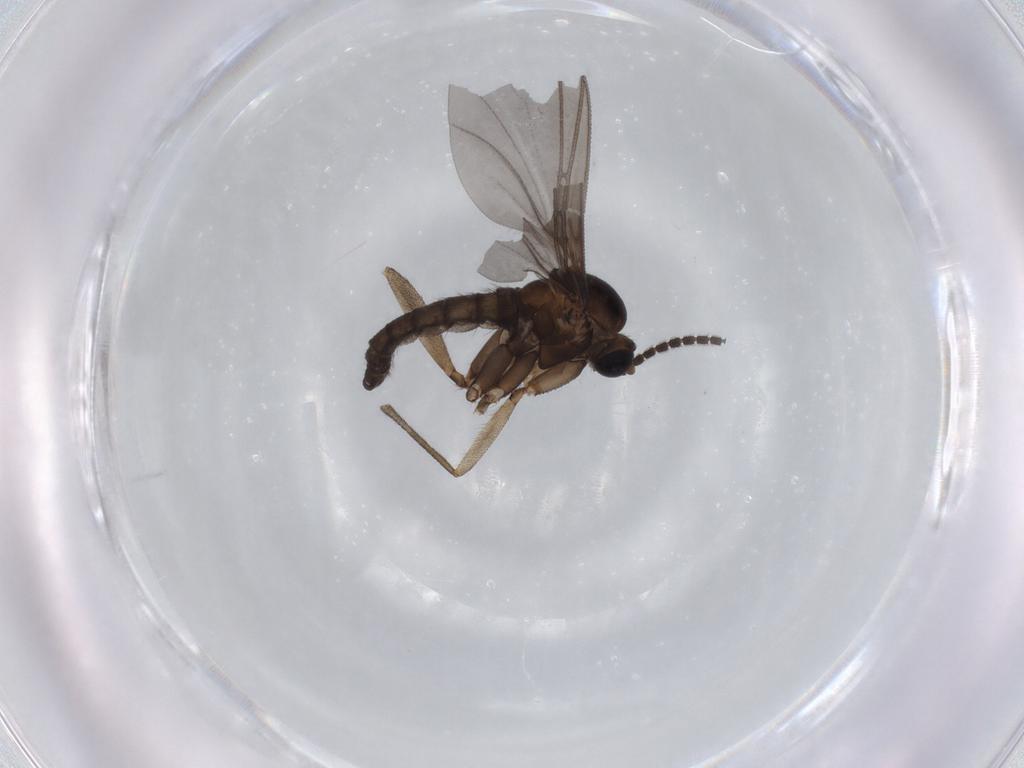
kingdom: Animalia
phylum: Arthropoda
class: Insecta
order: Diptera
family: Sciaridae
